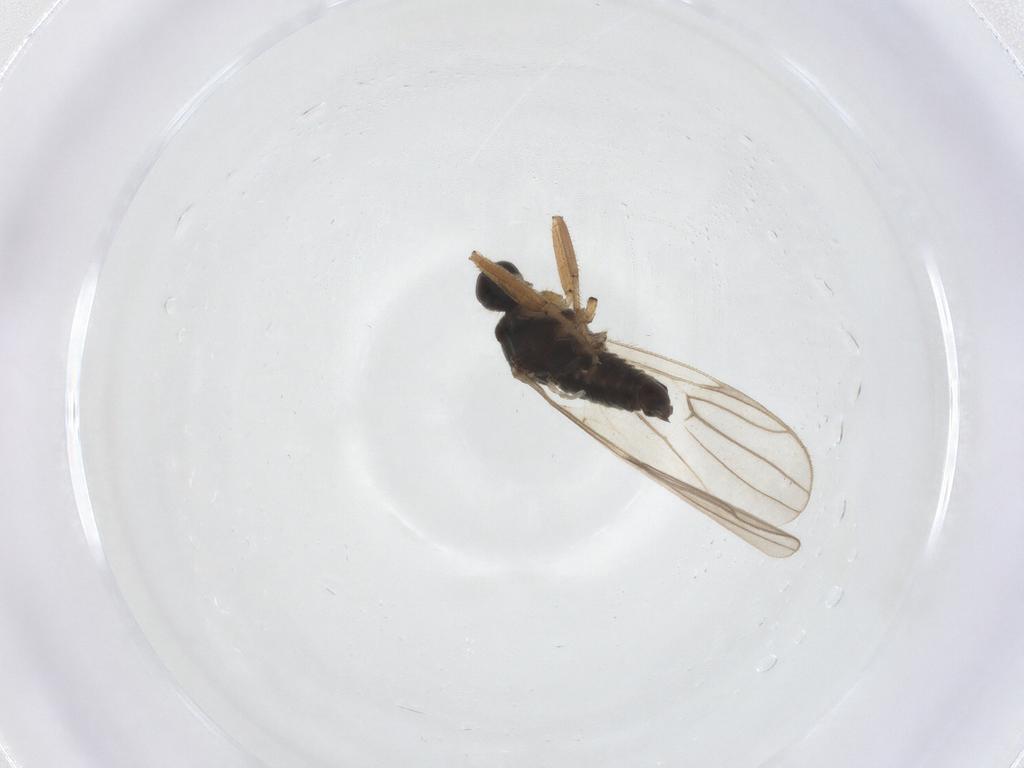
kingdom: Animalia
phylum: Arthropoda
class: Insecta
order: Diptera
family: Hybotidae
